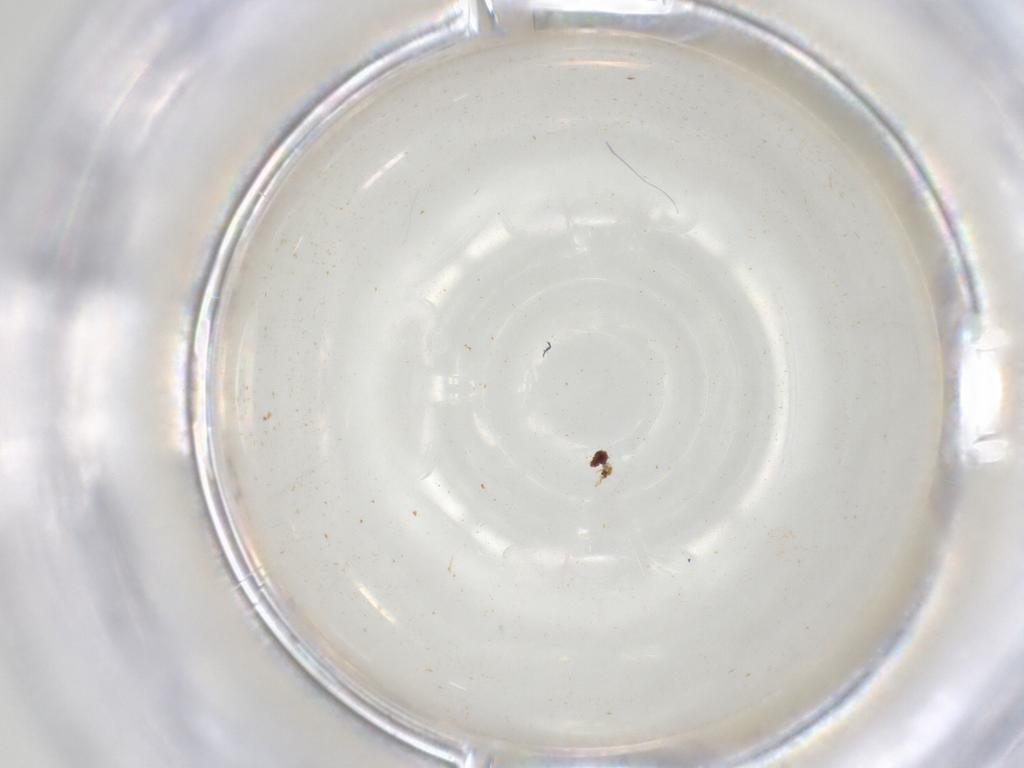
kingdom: Animalia
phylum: Arthropoda
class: Insecta
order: Diptera
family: Sciaridae
